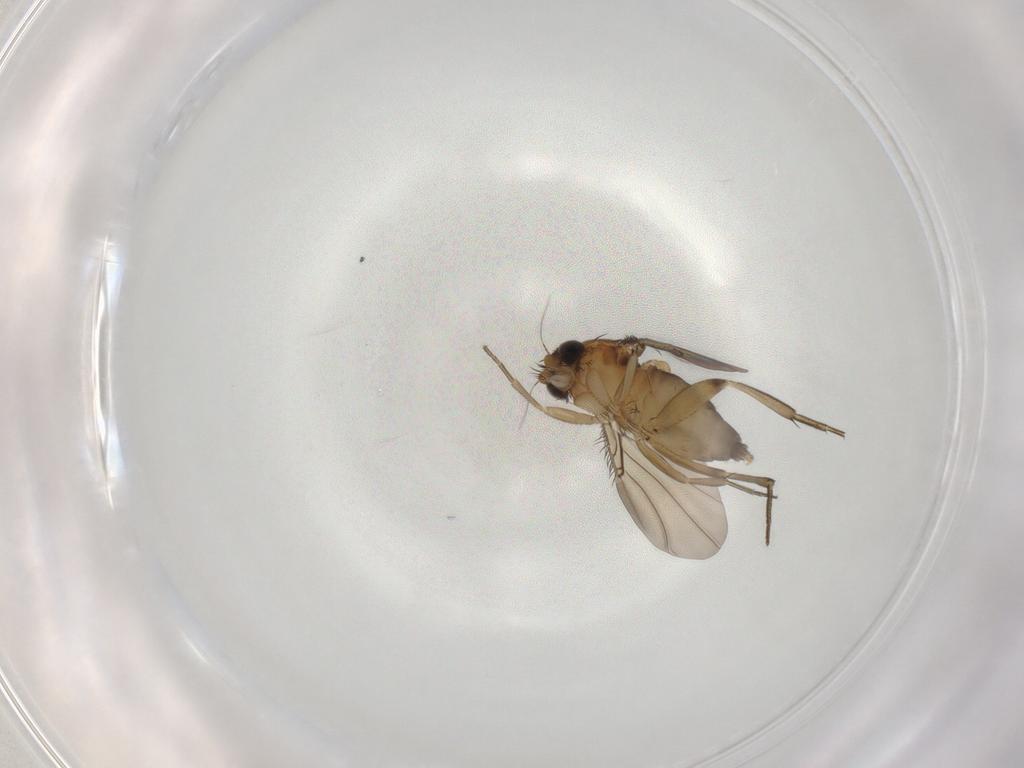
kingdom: Animalia
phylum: Arthropoda
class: Insecta
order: Diptera
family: Phoridae
